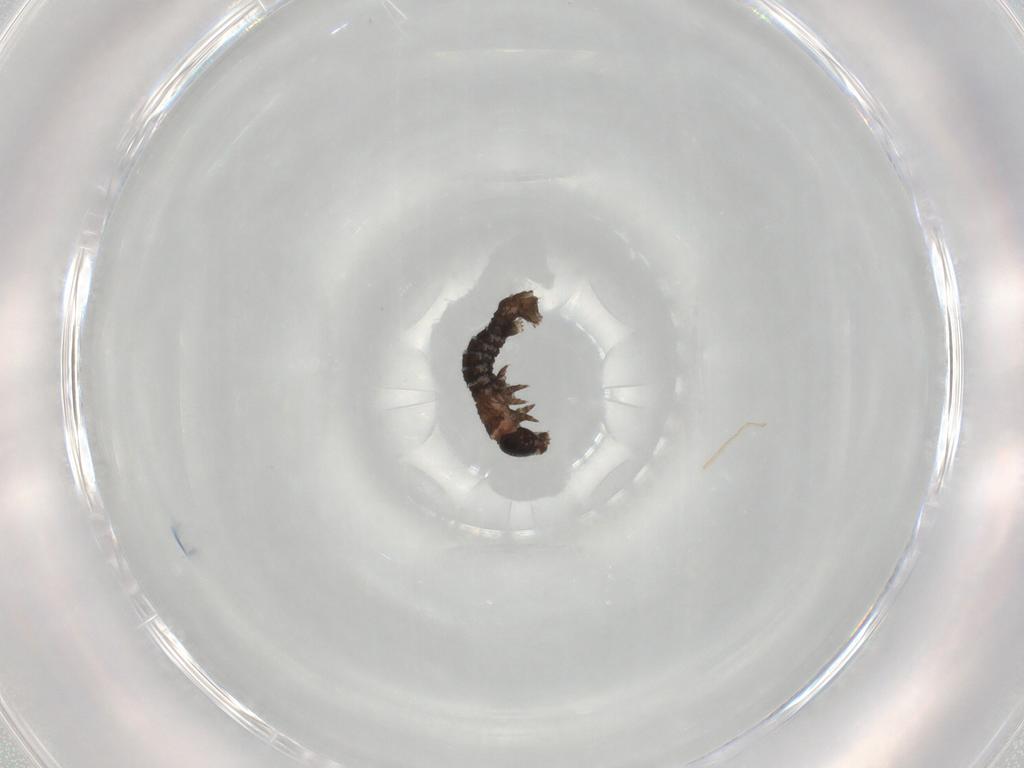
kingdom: Animalia
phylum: Arthropoda
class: Insecta
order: Lepidoptera
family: Geometridae
